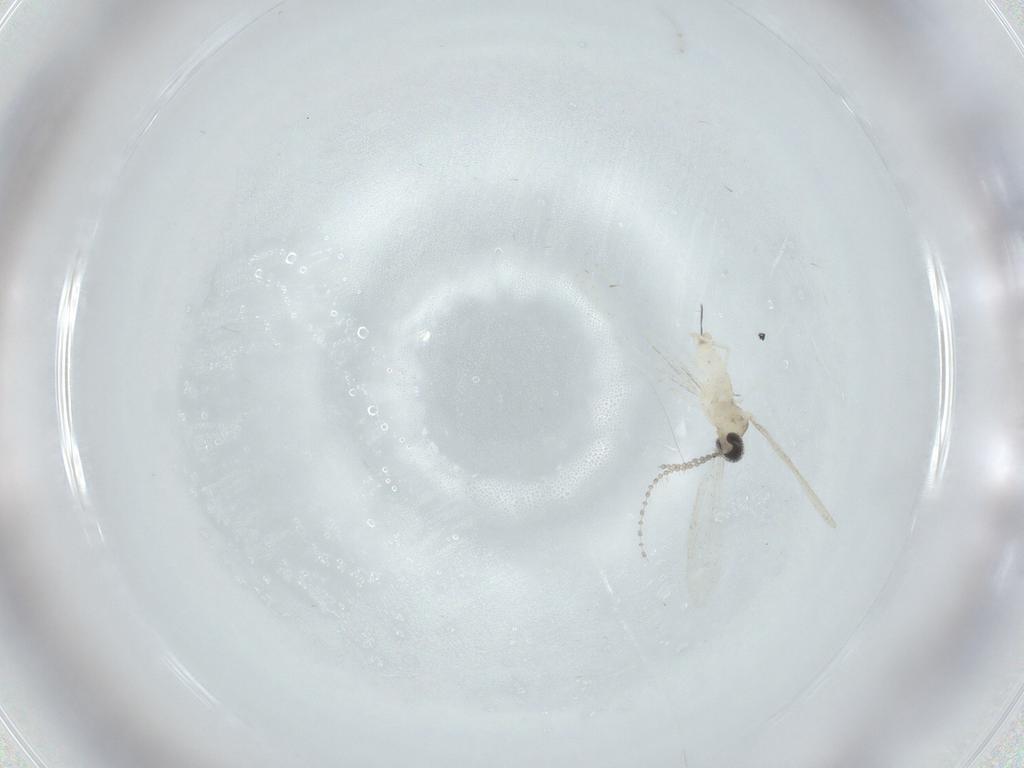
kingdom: Animalia
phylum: Arthropoda
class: Insecta
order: Diptera
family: Cecidomyiidae
